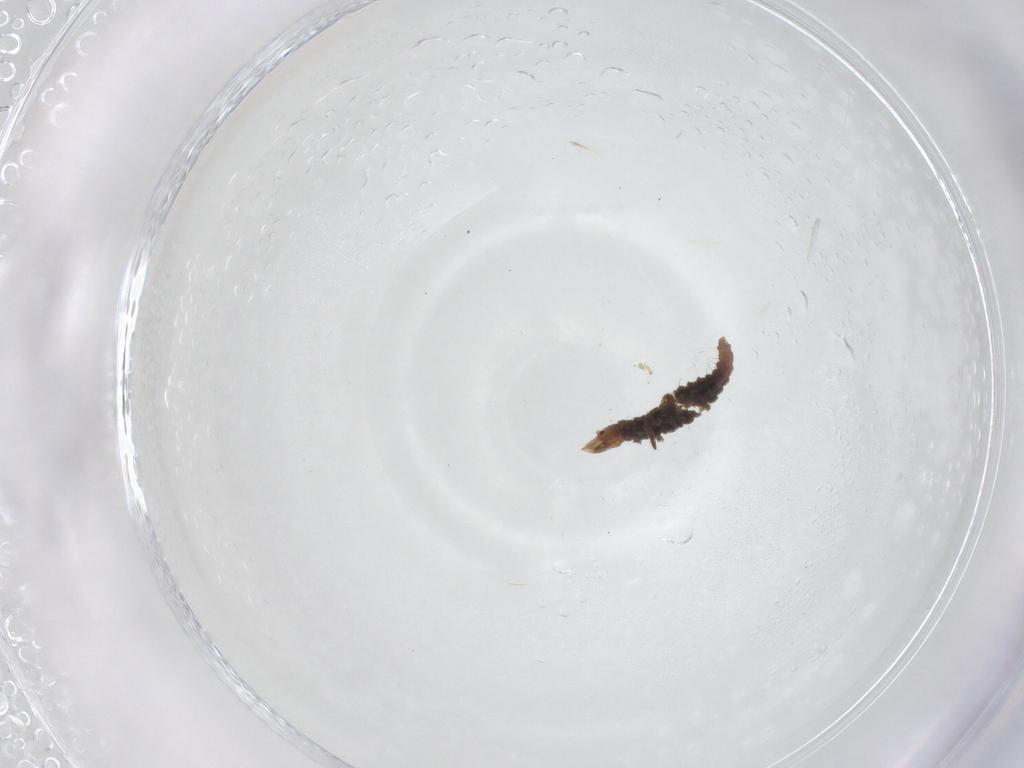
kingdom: Animalia
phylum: Arthropoda
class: Insecta
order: Neuroptera
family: Hemerobiidae
